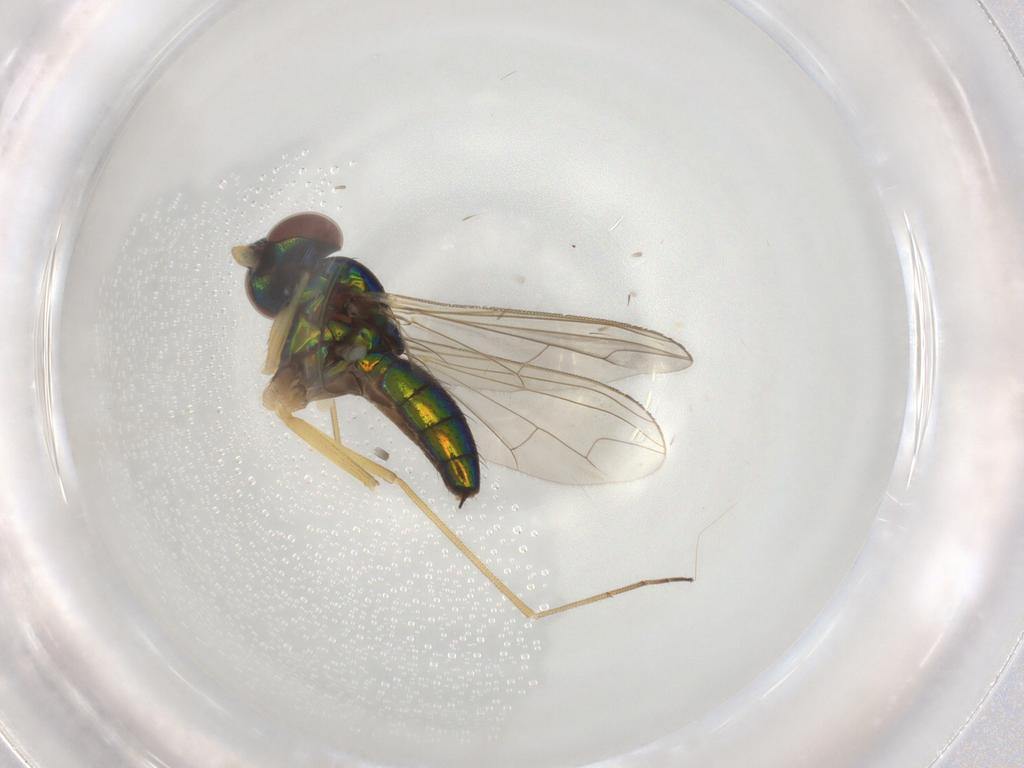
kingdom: Animalia
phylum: Arthropoda
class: Insecta
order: Diptera
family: Dolichopodidae
